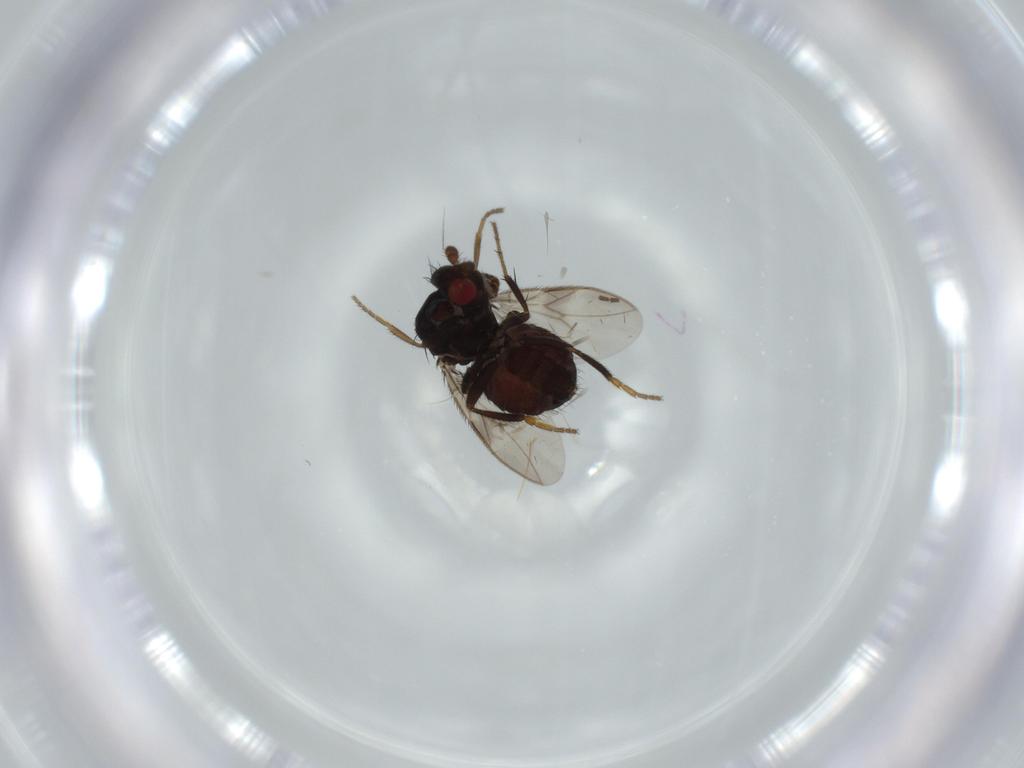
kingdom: Animalia
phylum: Arthropoda
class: Insecta
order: Diptera
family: Sphaeroceridae
